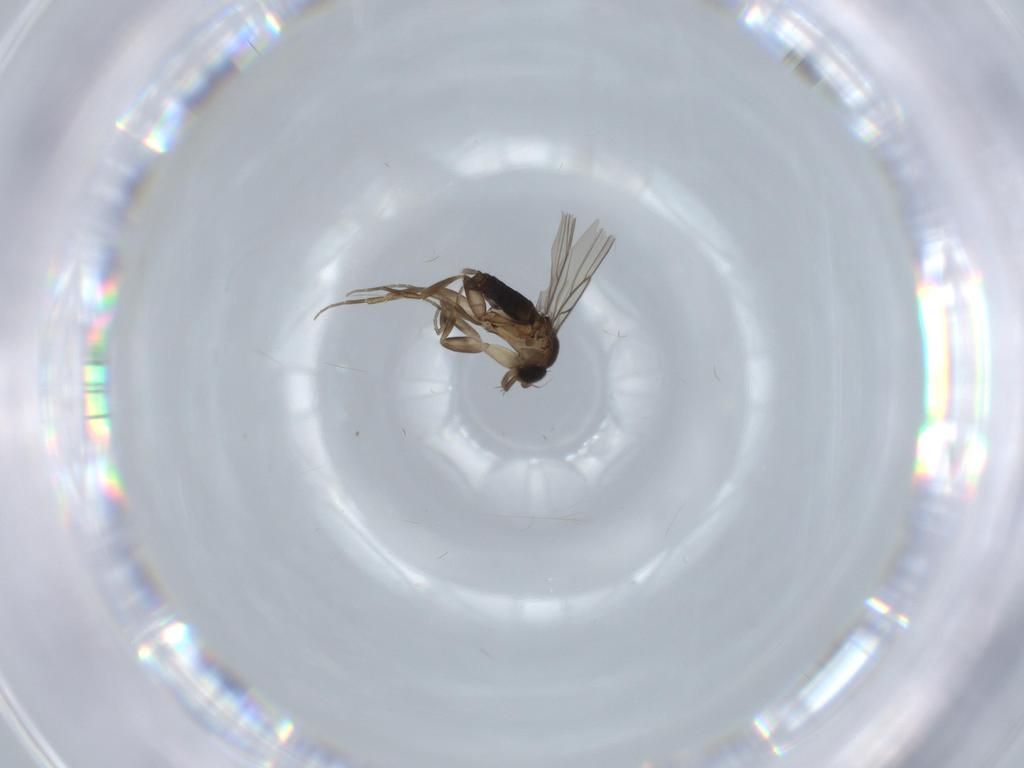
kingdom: Animalia
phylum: Arthropoda
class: Insecta
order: Diptera
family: Phoridae
